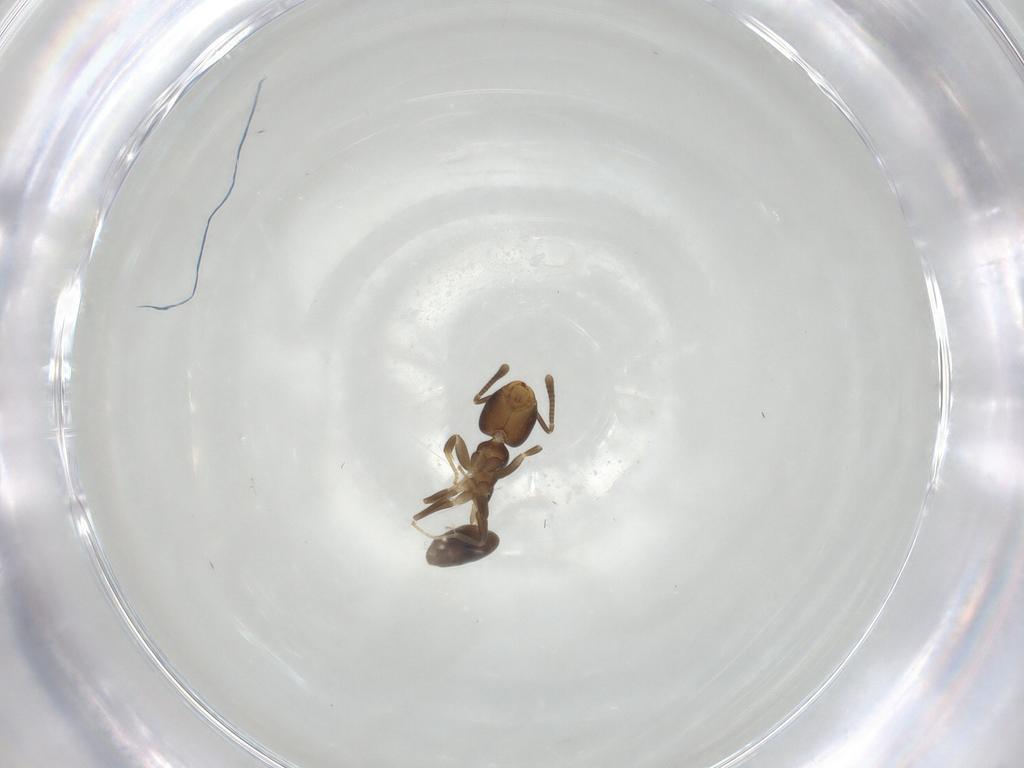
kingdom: Animalia
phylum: Arthropoda
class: Insecta
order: Hymenoptera
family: Formicidae
